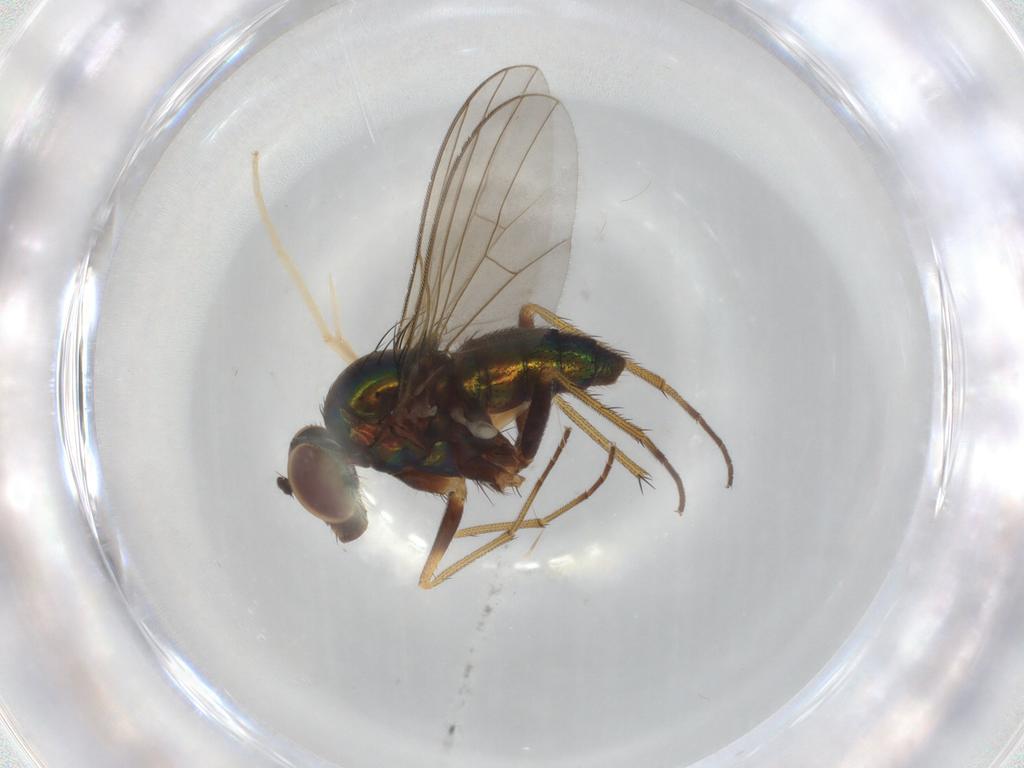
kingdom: Animalia
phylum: Arthropoda
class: Insecta
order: Diptera
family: Dolichopodidae
